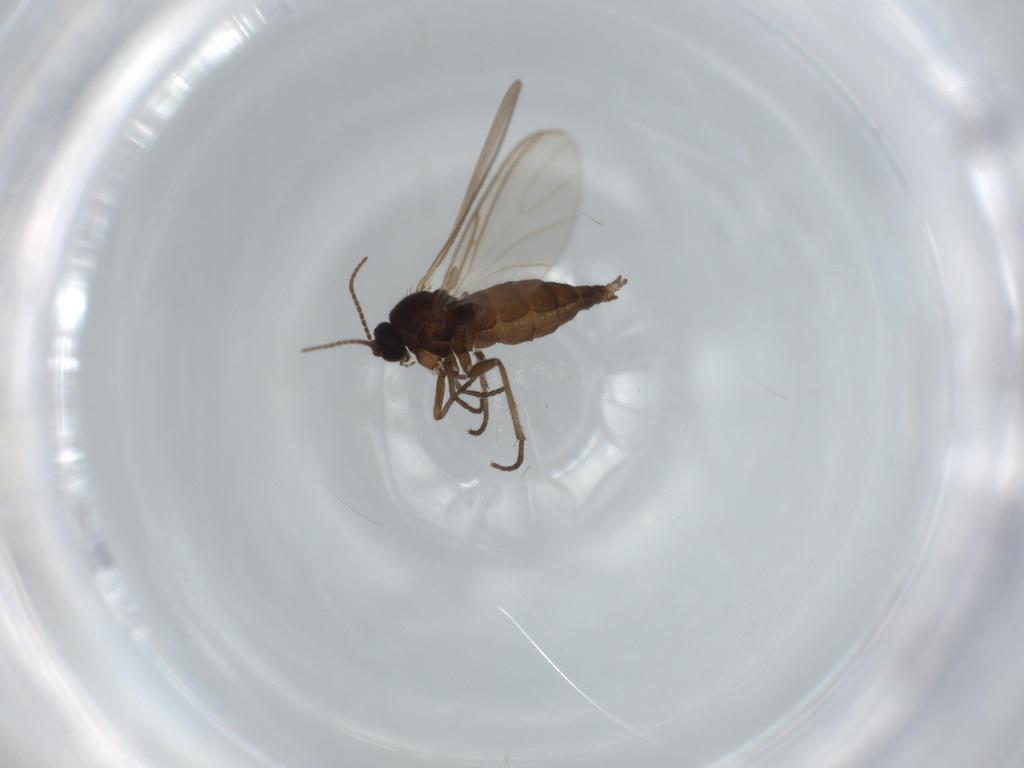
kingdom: Animalia
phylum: Arthropoda
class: Insecta
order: Diptera
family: Sciaridae
